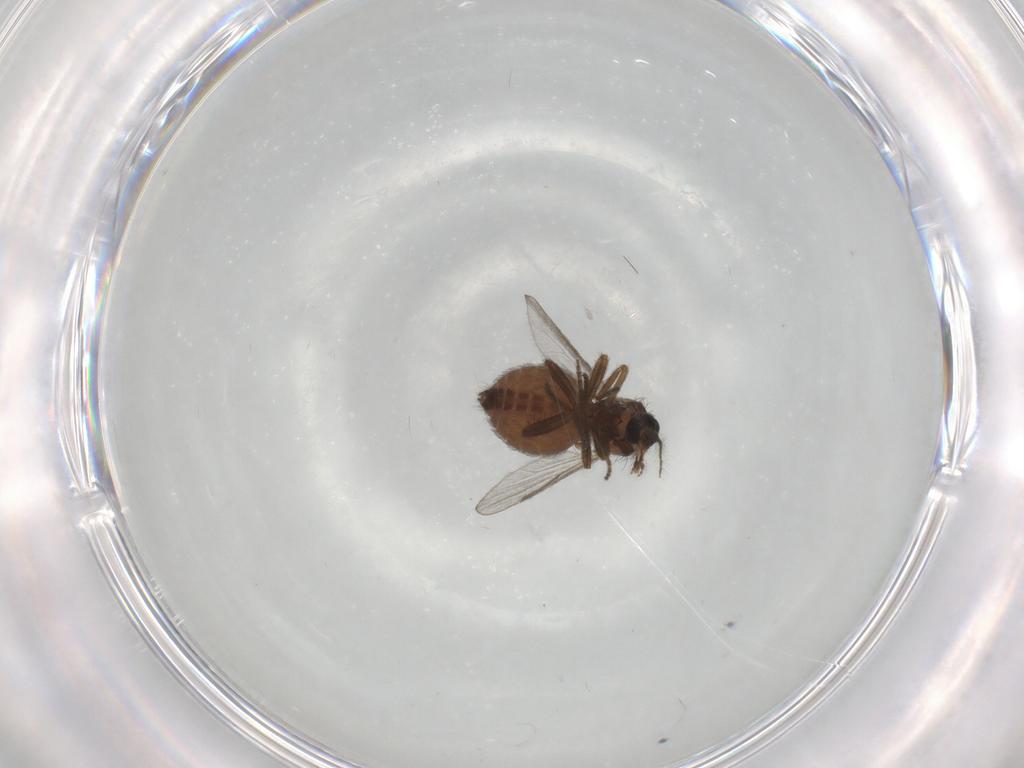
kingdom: Animalia
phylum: Arthropoda
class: Insecta
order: Diptera
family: Ceratopogonidae
